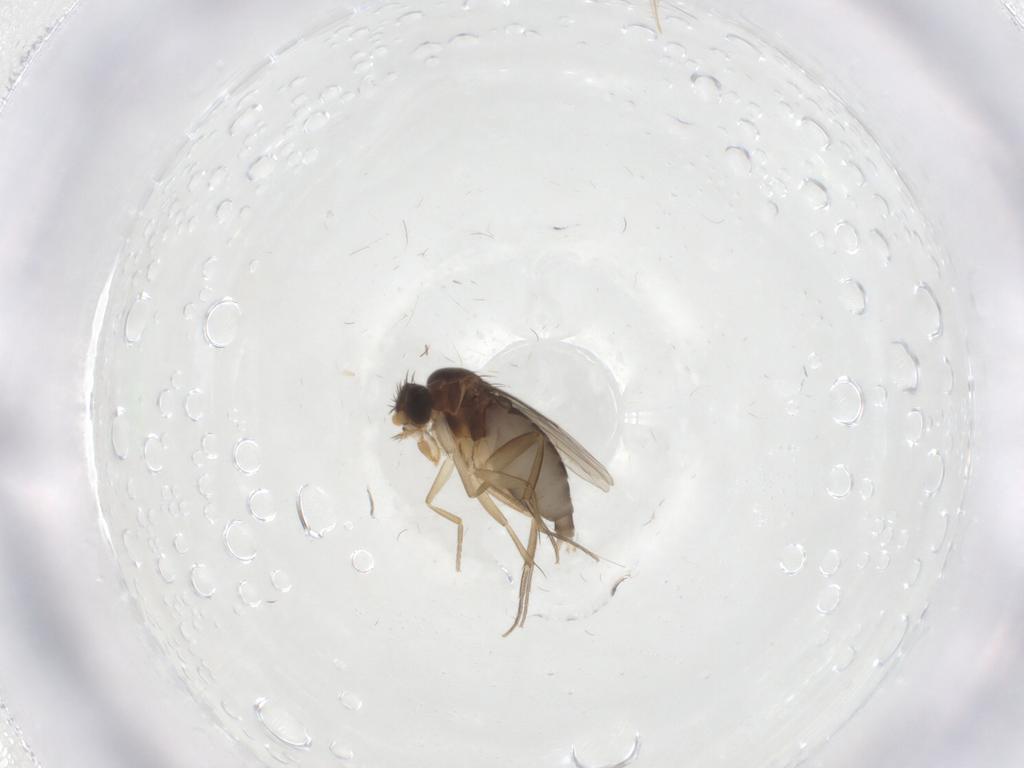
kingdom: Animalia
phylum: Arthropoda
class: Insecta
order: Diptera
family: Phoridae
